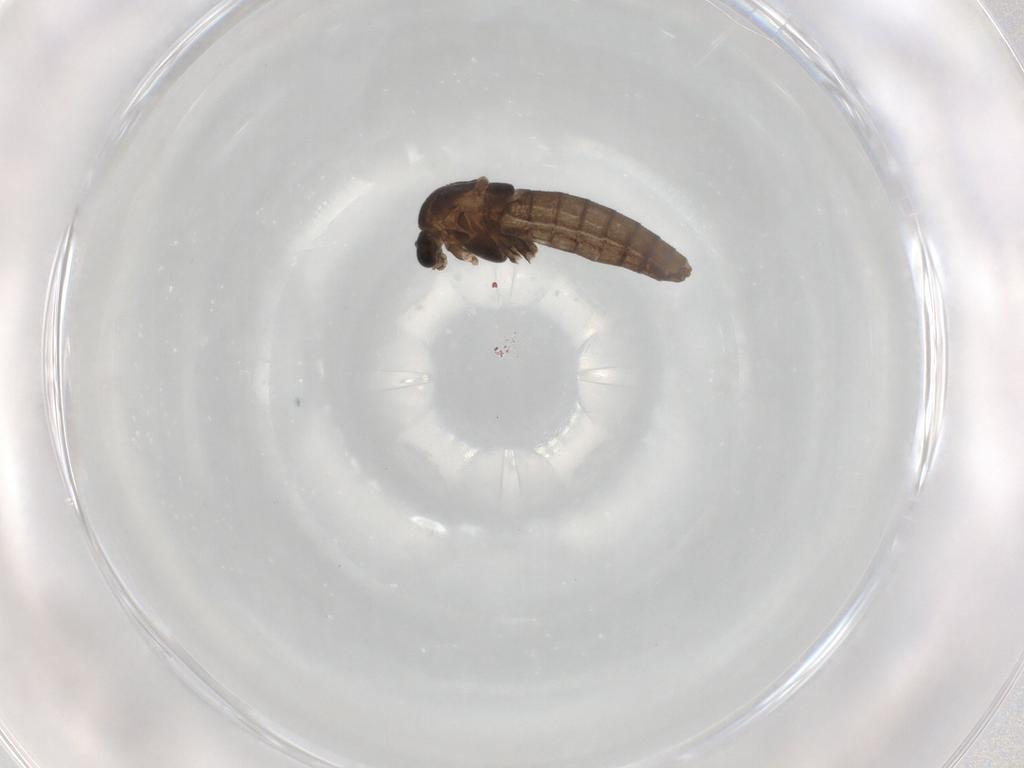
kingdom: Animalia
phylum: Arthropoda
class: Insecta
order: Diptera
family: Chironomidae
